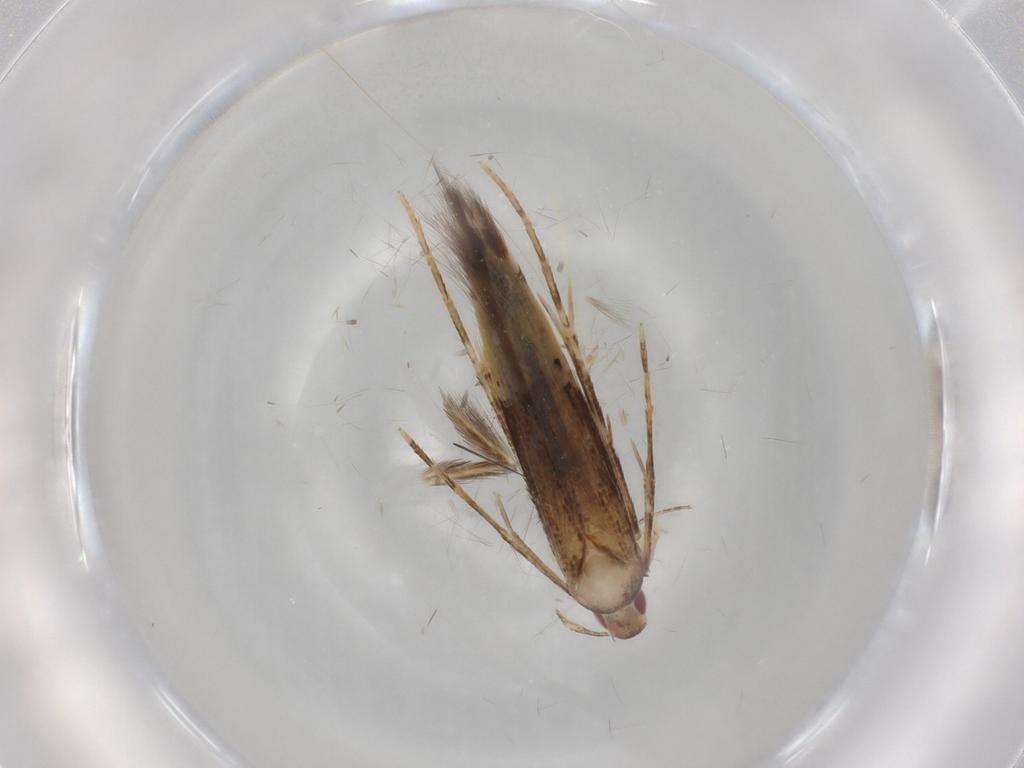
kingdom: Animalia
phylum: Arthropoda
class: Insecta
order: Lepidoptera
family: Cosmopterigidae
